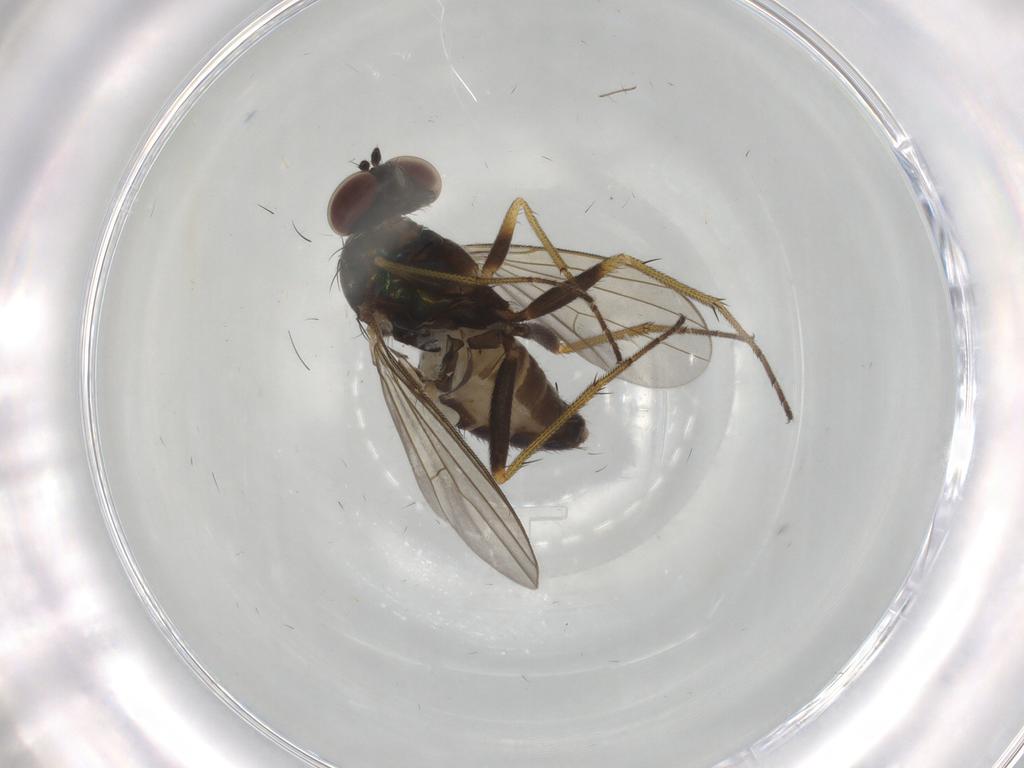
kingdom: Animalia
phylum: Arthropoda
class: Insecta
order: Diptera
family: Dolichopodidae
